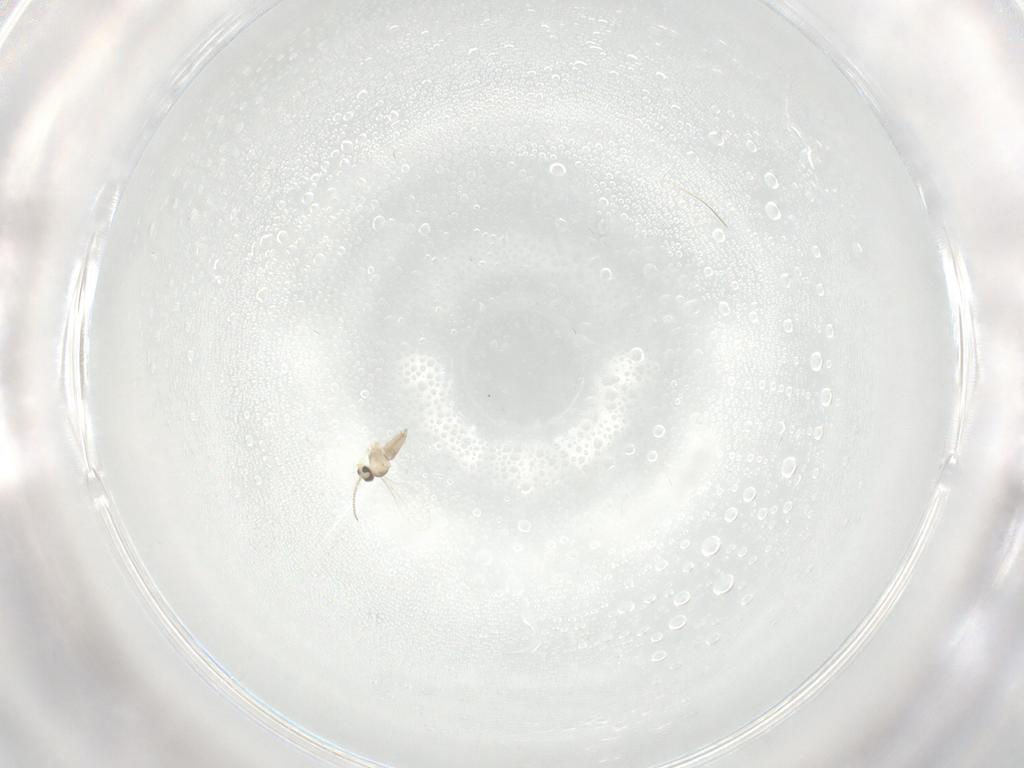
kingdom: Animalia
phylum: Arthropoda
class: Insecta
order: Diptera
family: Cecidomyiidae
